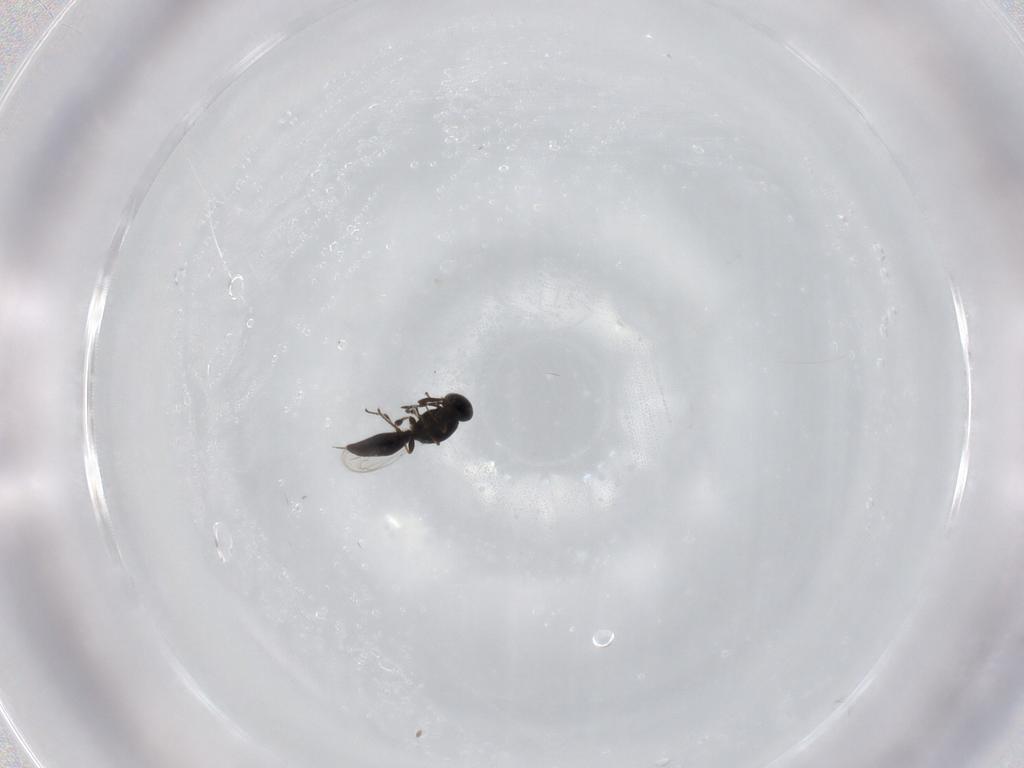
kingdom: Animalia
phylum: Arthropoda
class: Insecta
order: Hymenoptera
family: Platygastridae
